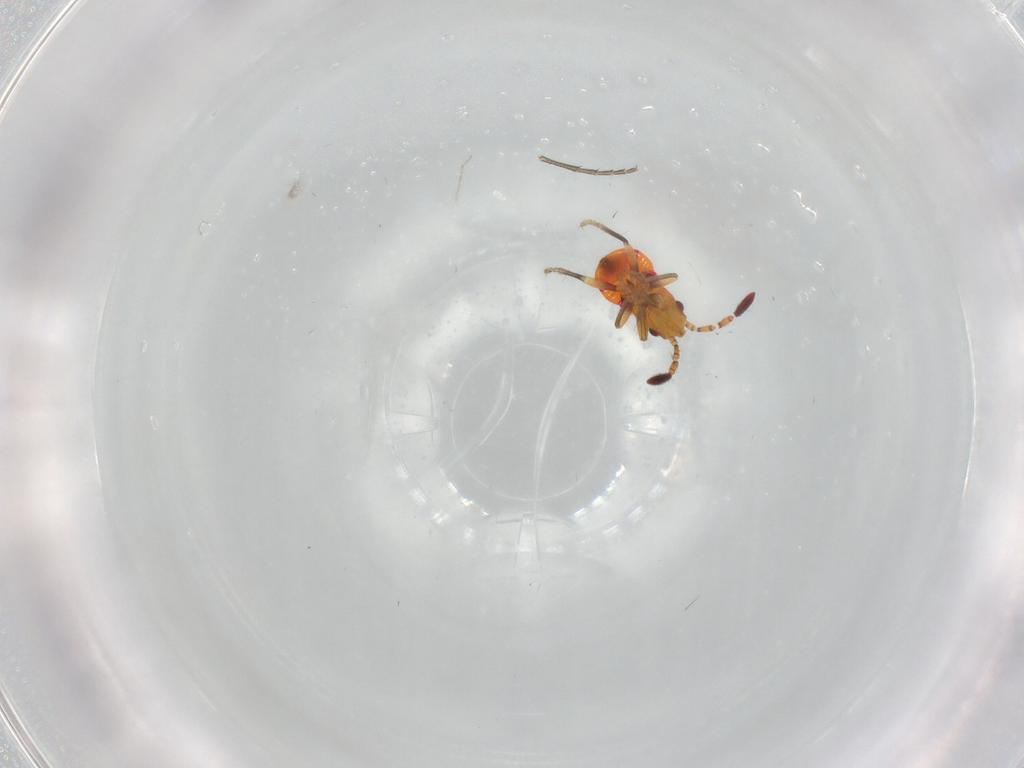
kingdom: Animalia
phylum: Arthropoda
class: Insecta
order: Hemiptera
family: Rhyparochromidae
